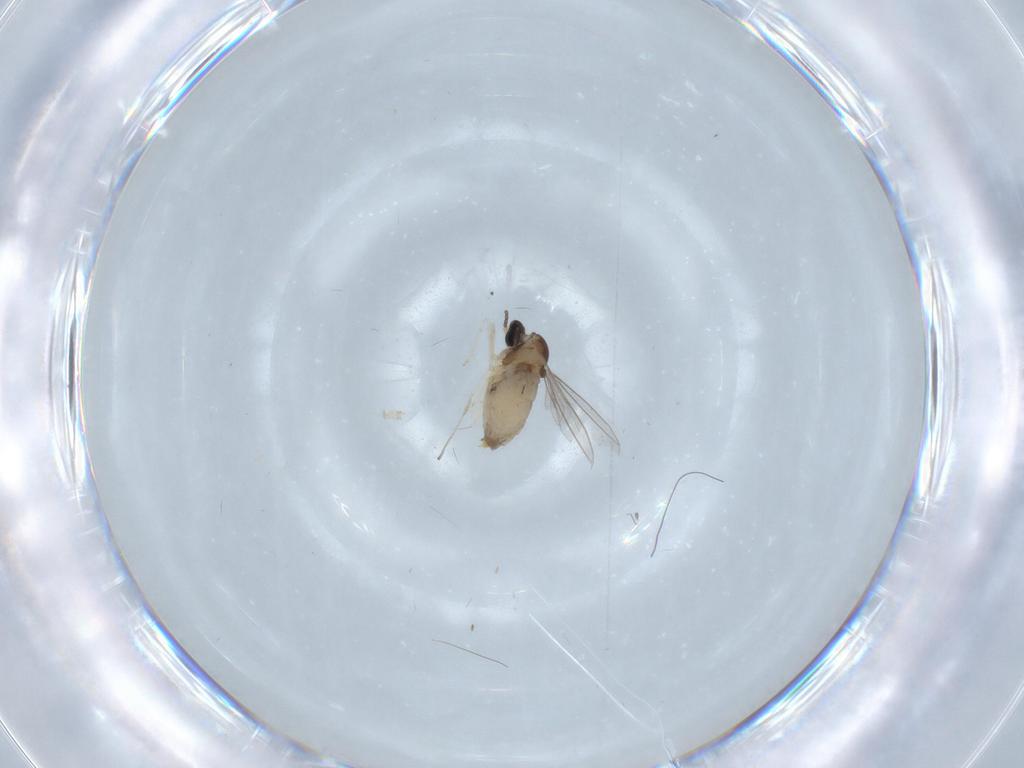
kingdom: Animalia
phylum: Arthropoda
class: Insecta
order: Diptera
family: Cecidomyiidae
